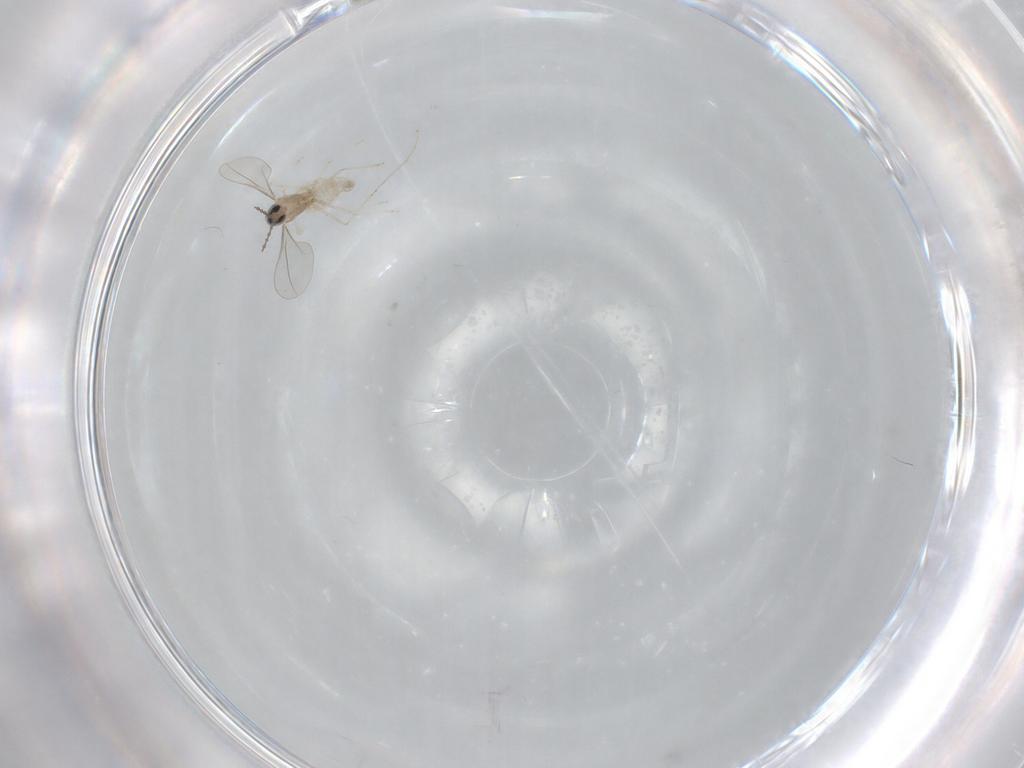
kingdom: Animalia
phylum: Arthropoda
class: Insecta
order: Diptera
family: Cecidomyiidae
